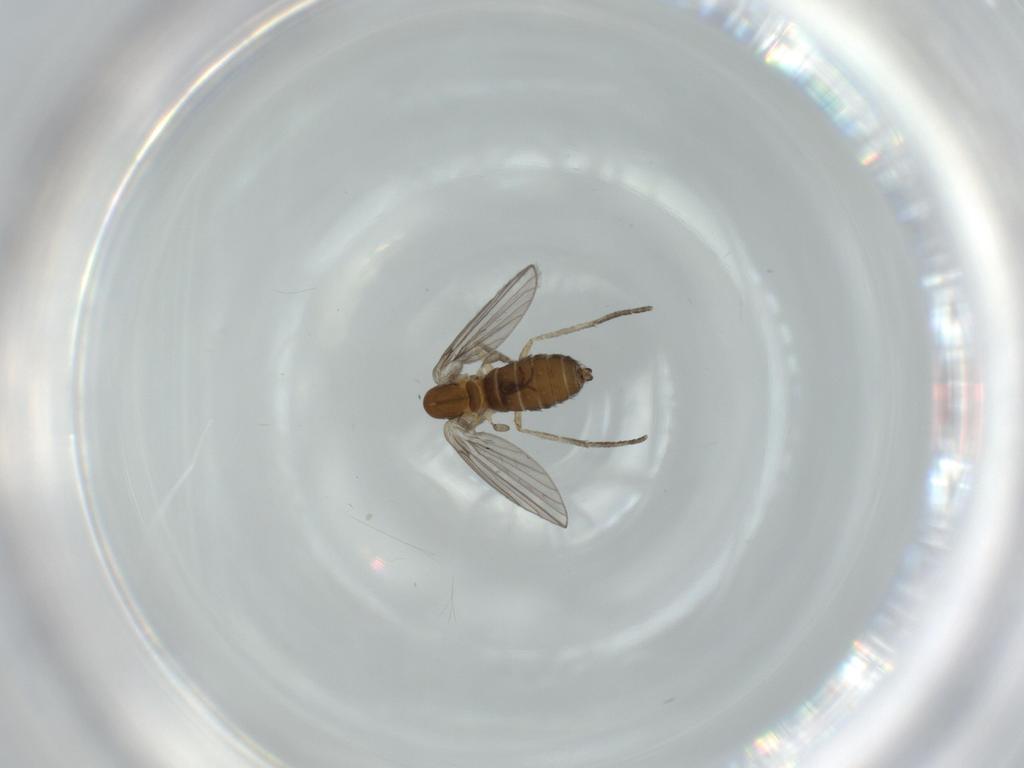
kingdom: Animalia
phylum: Arthropoda
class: Insecta
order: Diptera
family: Psychodidae
